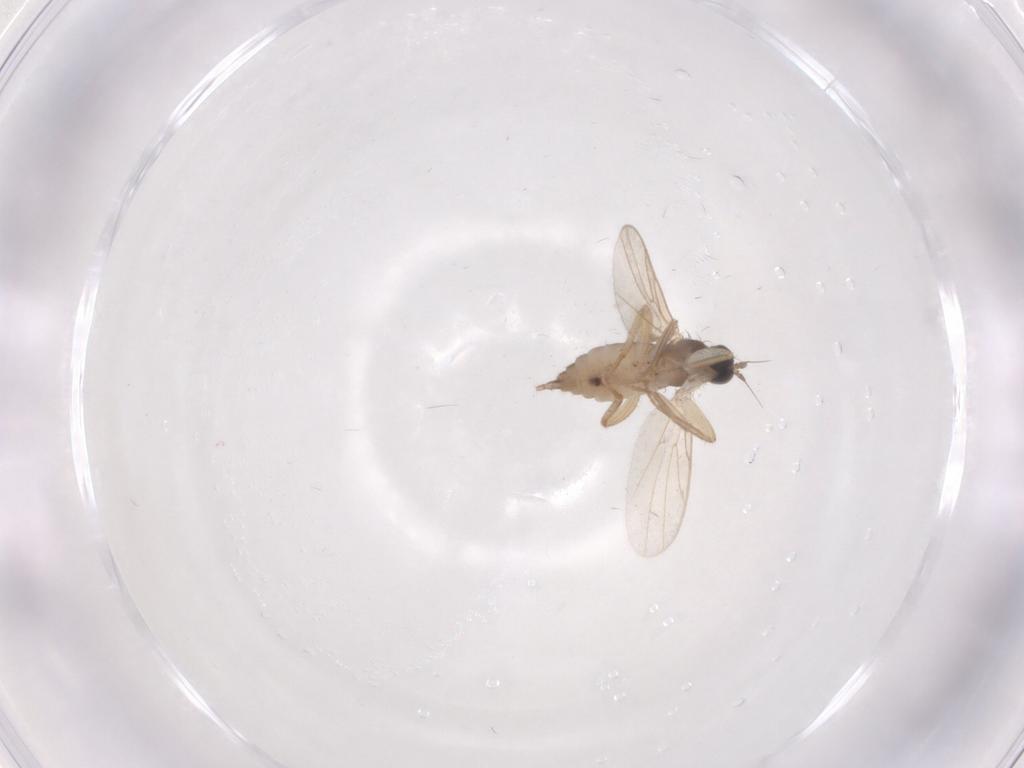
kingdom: Animalia
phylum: Arthropoda
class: Insecta
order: Diptera
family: Hybotidae
